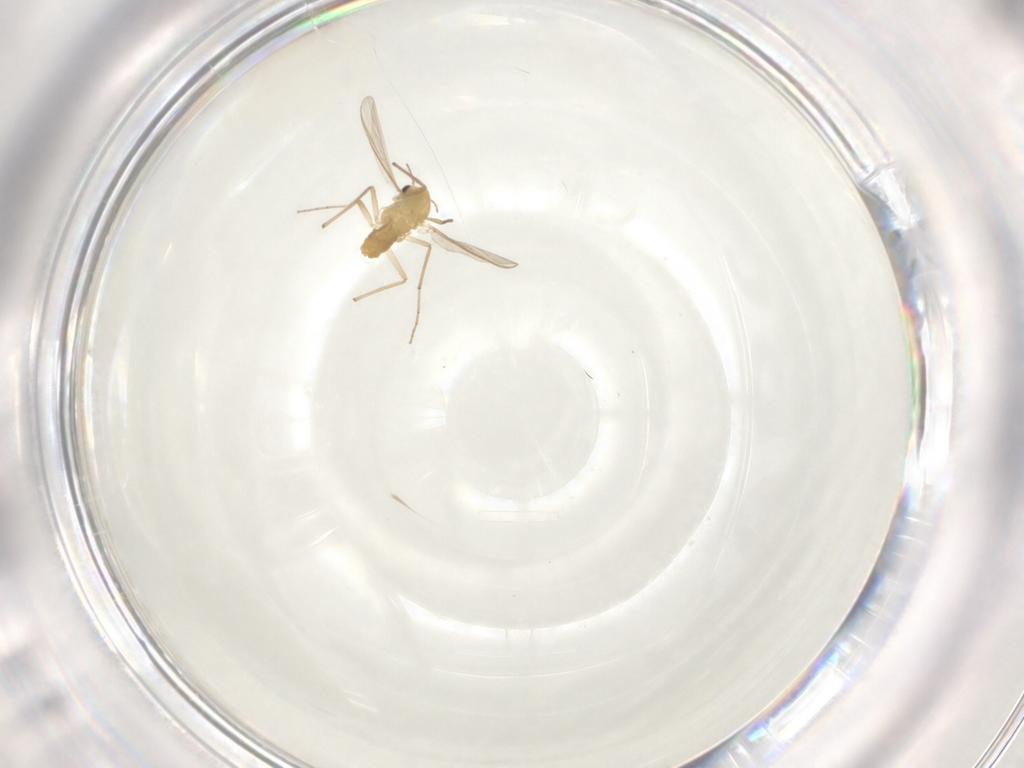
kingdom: Animalia
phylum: Arthropoda
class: Insecta
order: Diptera
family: Chironomidae
